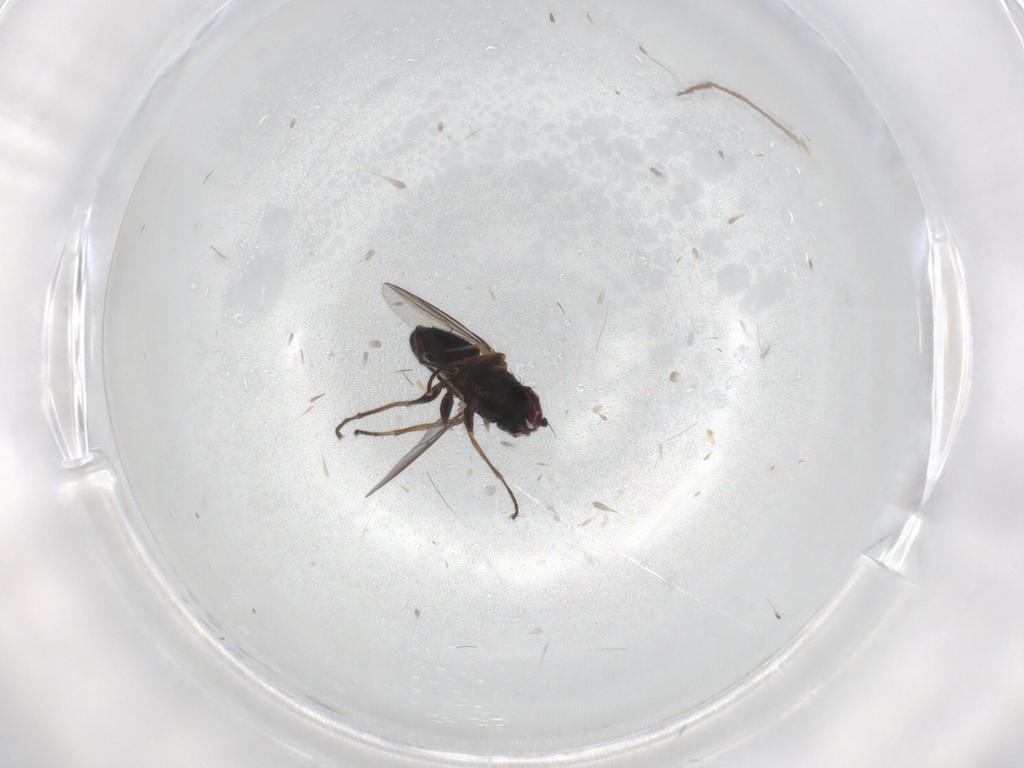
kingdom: Animalia
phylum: Arthropoda
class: Insecta
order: Diptera
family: Dolichopodidae
